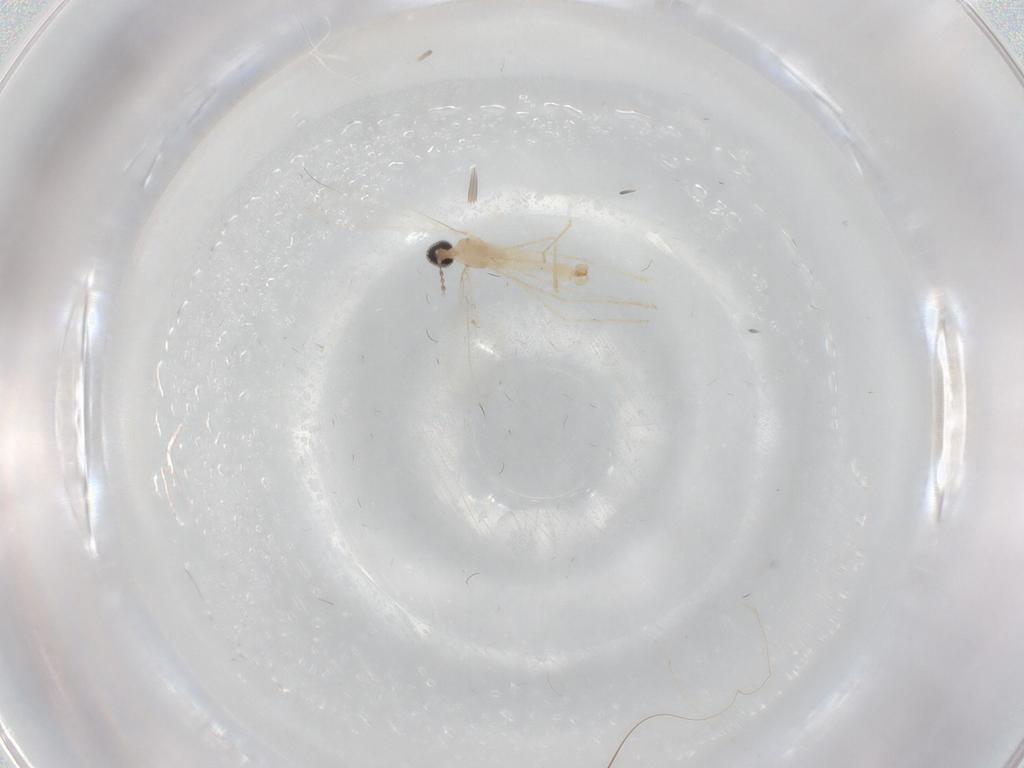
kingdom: Animalia
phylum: Arthropoda
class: Insecta
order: Diptera
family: Cecidomyiidae
